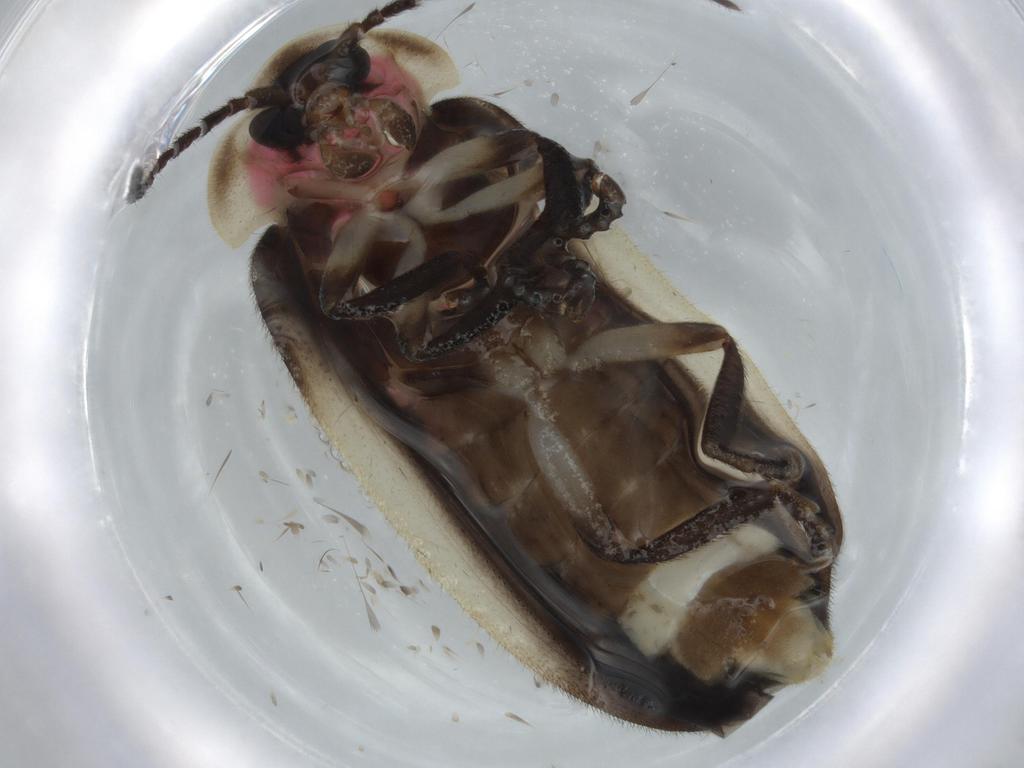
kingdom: Animalia
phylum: Arthropoda
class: Insecta
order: Coleoptera
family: Lampyridae
